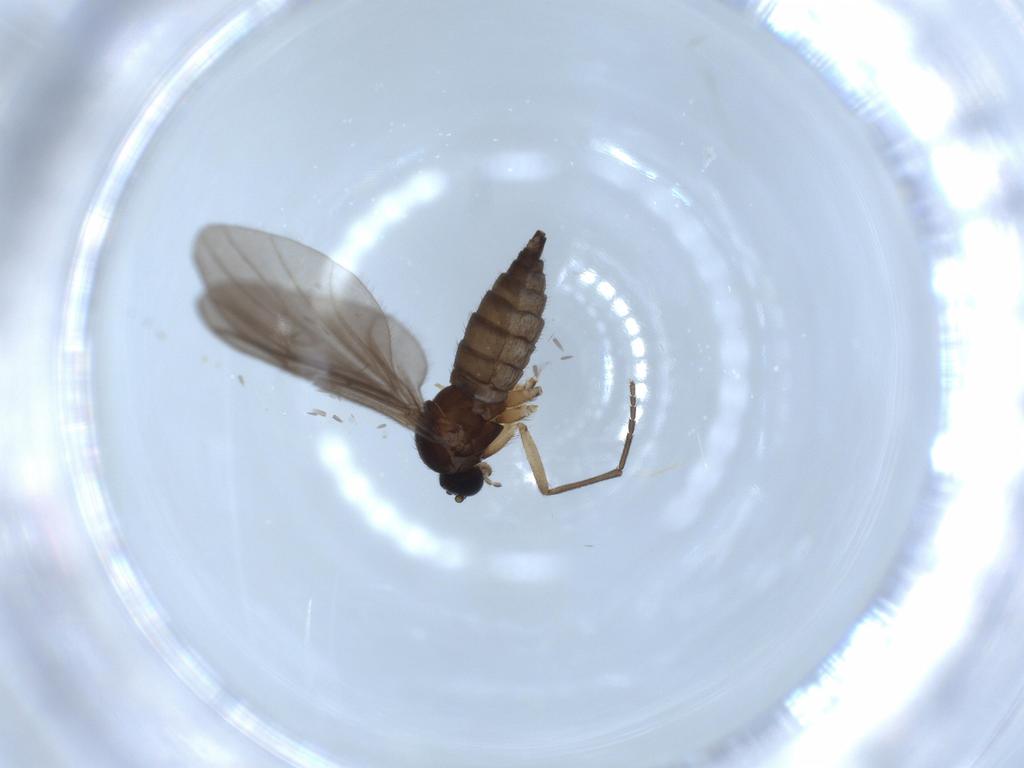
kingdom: Animalia
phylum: Arthropoda
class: Insecta
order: Diptera
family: Sciaridae
